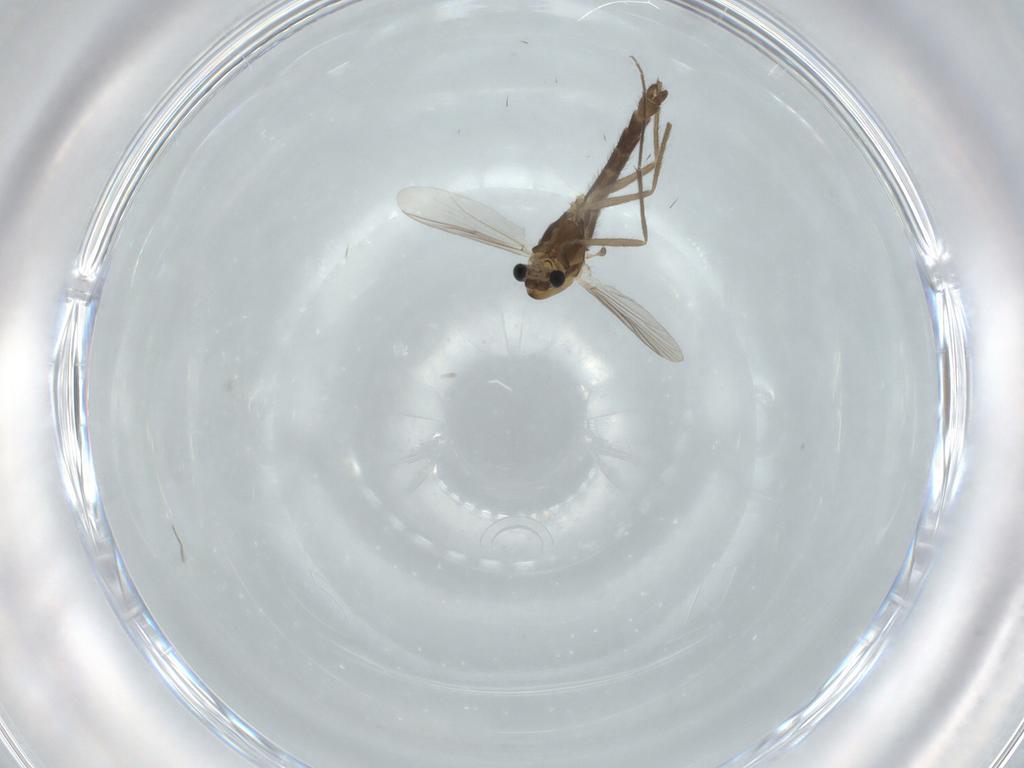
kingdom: Animalia
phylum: Arthropoda
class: Insecta
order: Diptera
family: Chironomidae
